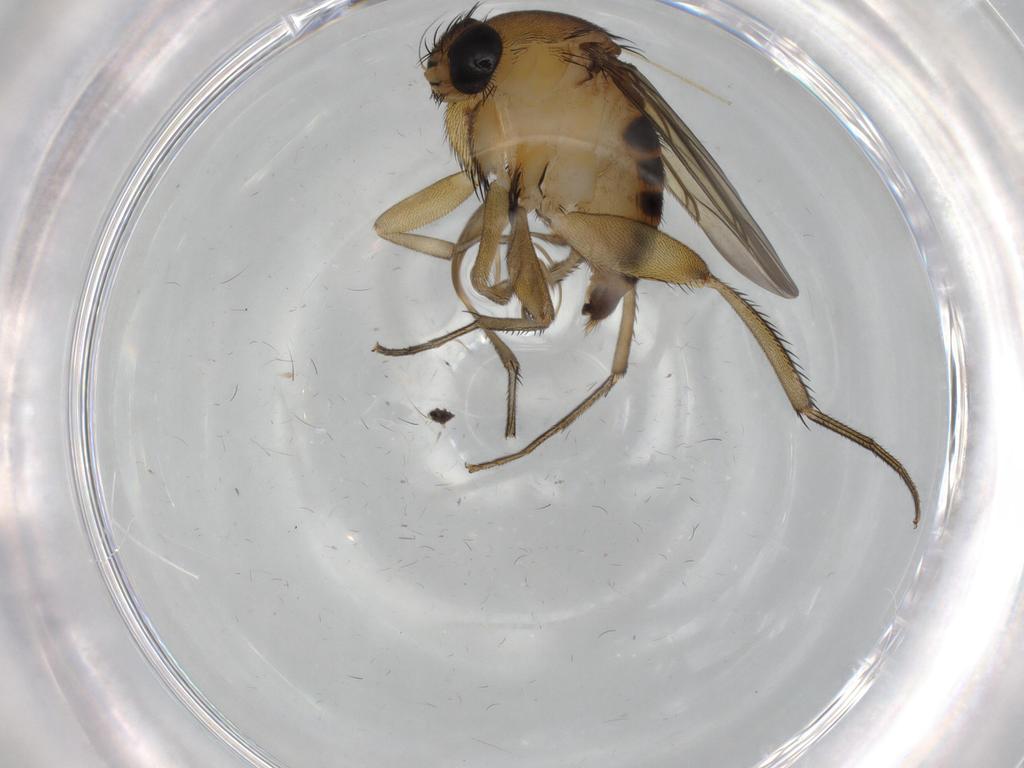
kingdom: Animalia
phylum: Arthropoda
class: Insecta
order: Diptera
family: Phoridae
